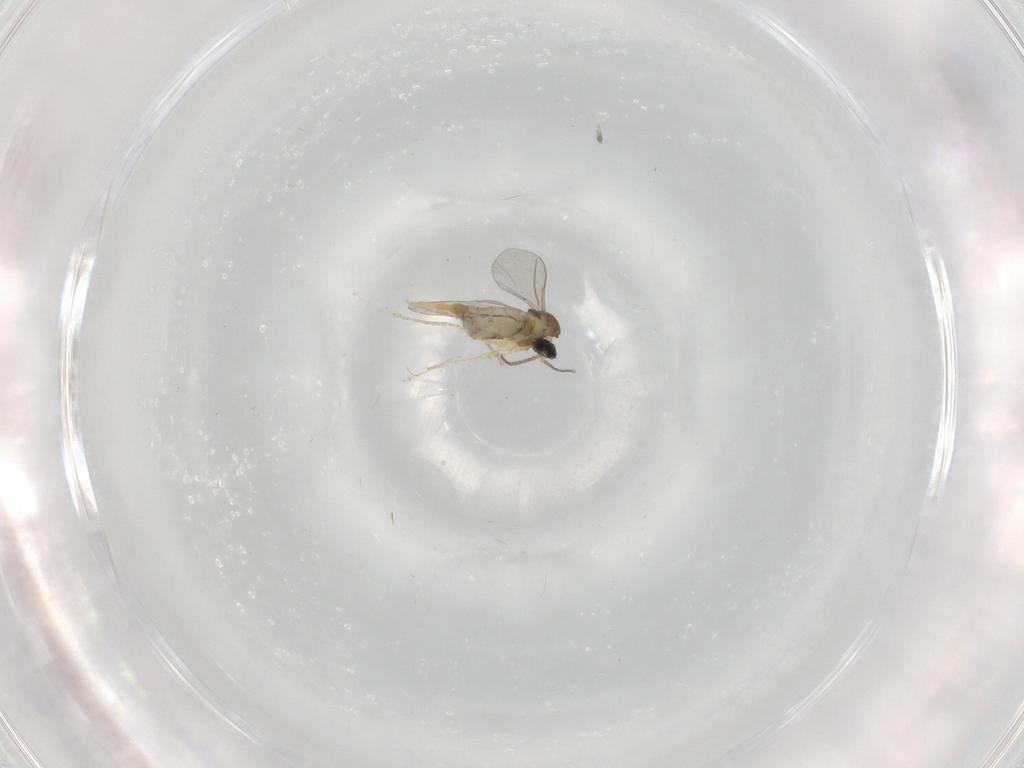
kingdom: Animalia
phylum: Arthropoda
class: Insecta
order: Diptera
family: Cecidomyiidae
